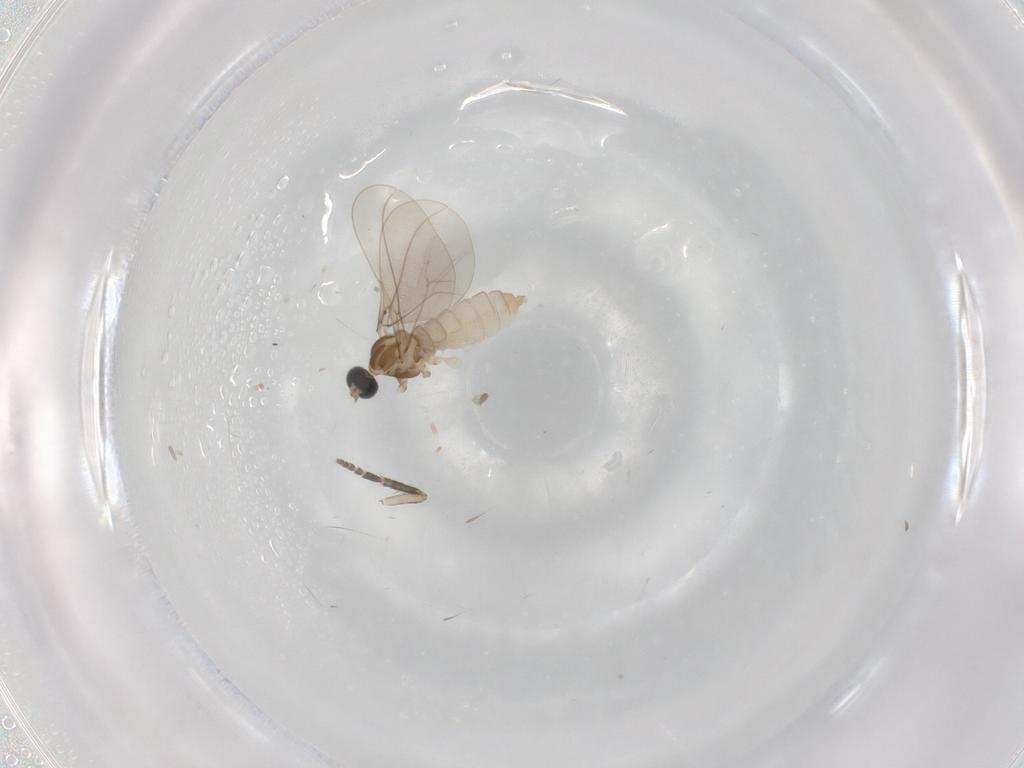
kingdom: Animalia
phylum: Arthropoda
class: Insecta
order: Diptera
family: Psychodidae
